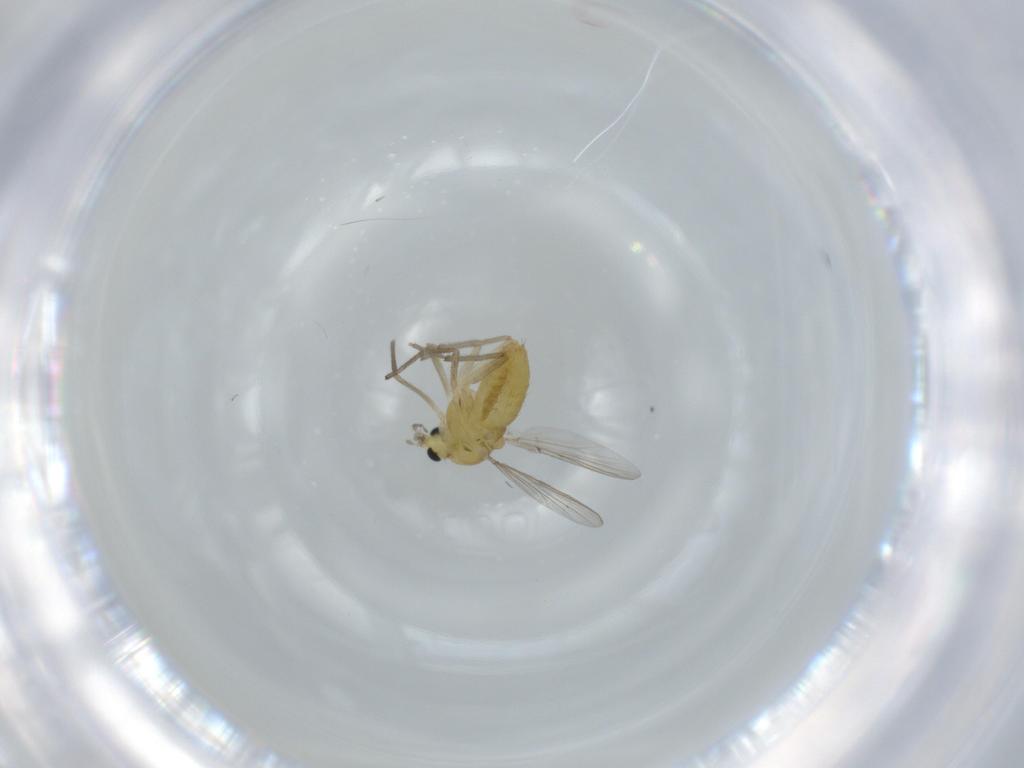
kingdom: Animalia
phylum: Arthropoda
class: Insecta
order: Diptera
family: Chironomidae
